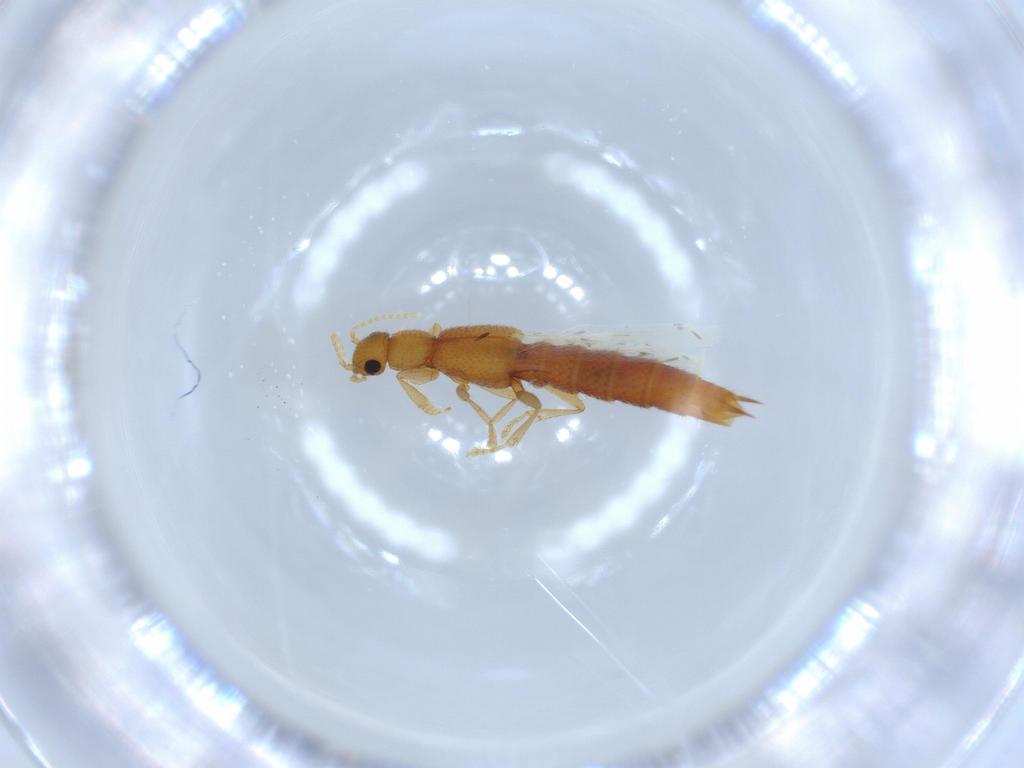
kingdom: Animalia
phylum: Arthropoda
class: Insecta
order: Coleoptera
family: Staphylinidae
